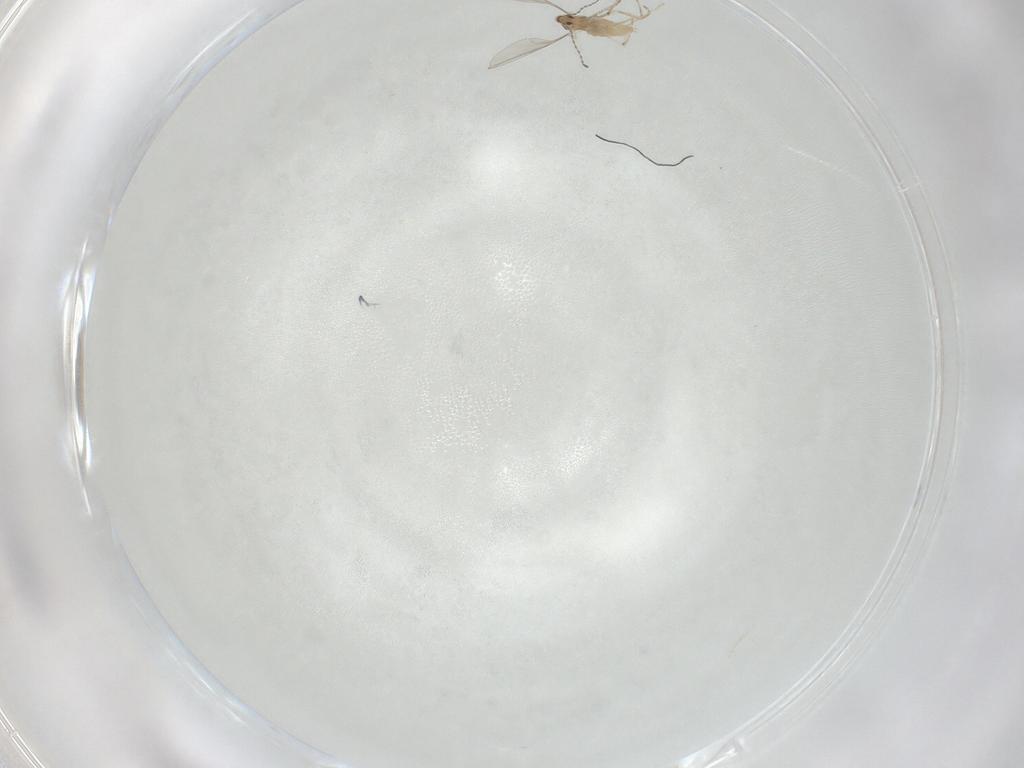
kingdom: Animalia
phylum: Arthropoda
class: Insecta
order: Diptera
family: Cecidomyiidae
